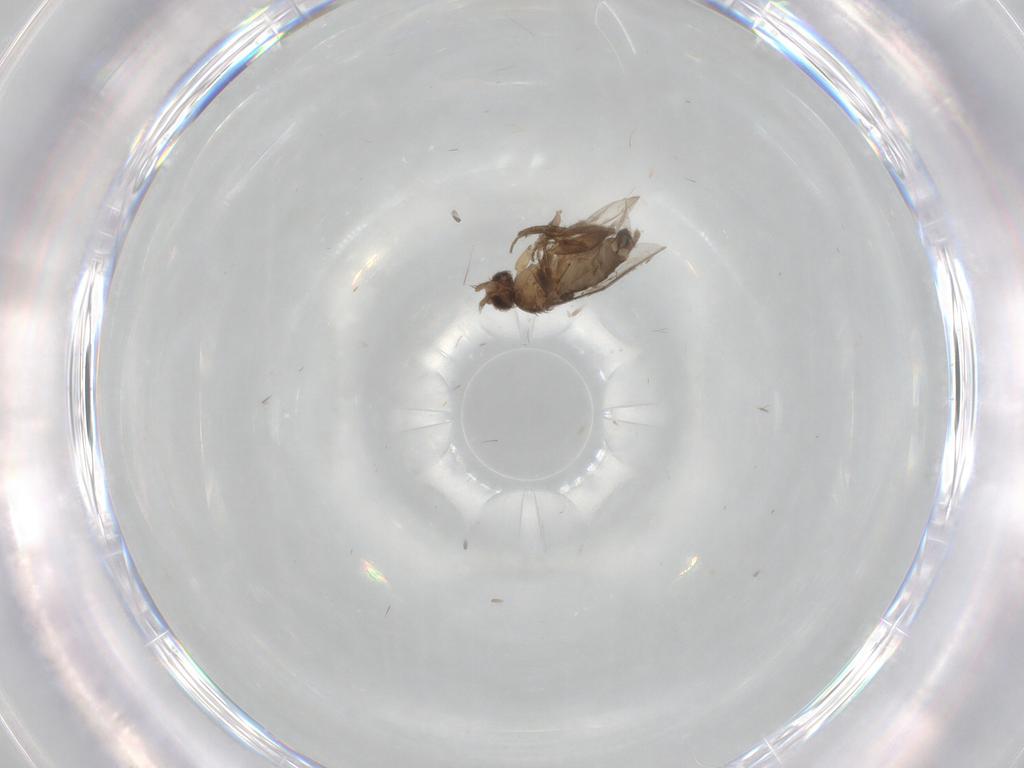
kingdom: Animalia
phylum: Arthropoda
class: Insecta
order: Diptera
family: Phoridae
